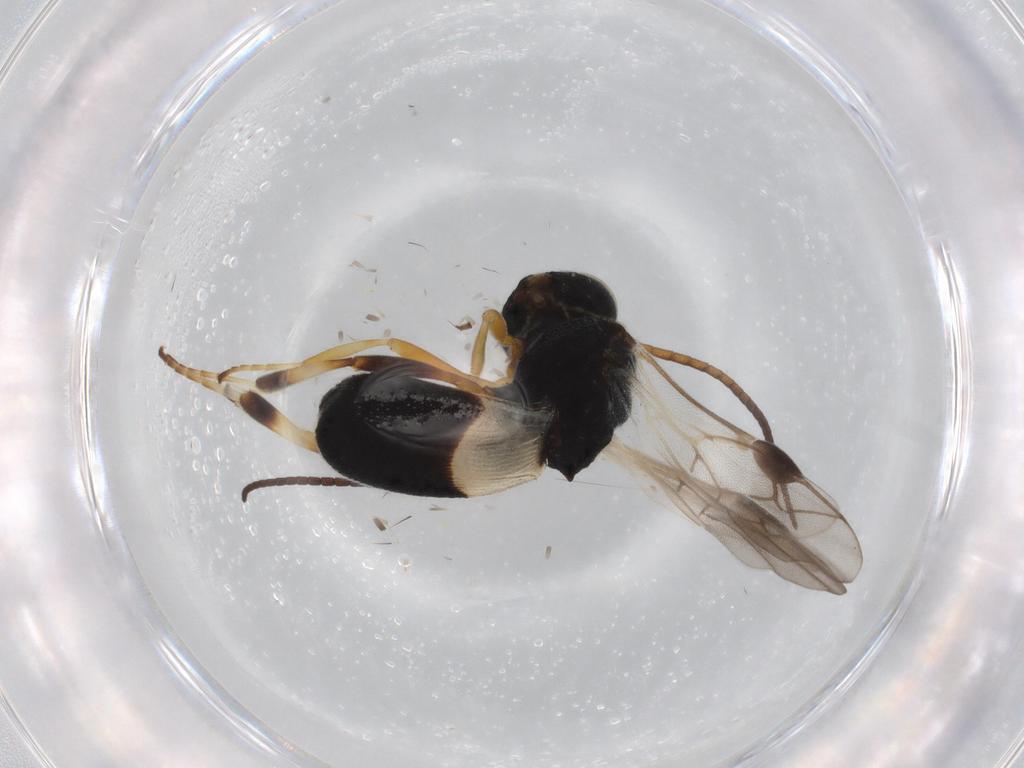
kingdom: Animalia
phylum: Arthropoda
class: Insecta
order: Hymenoptera
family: Braconidae
